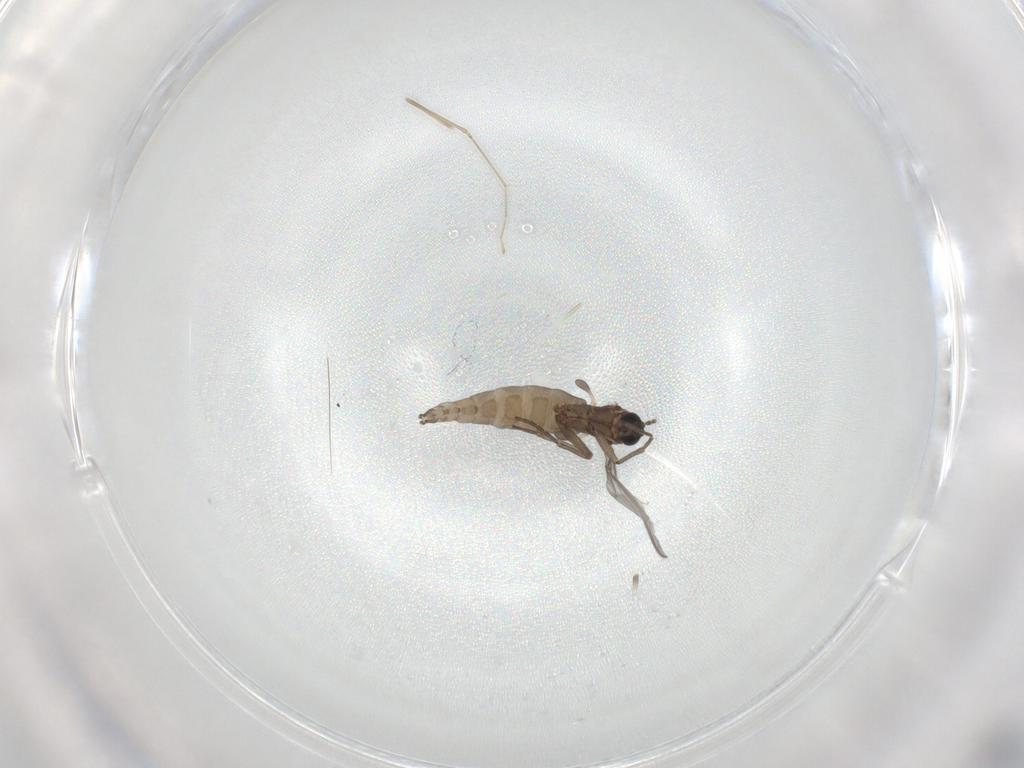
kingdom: Animalia
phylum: Arthropoda
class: Insecta
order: Diptera
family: Cecidomyiidae
